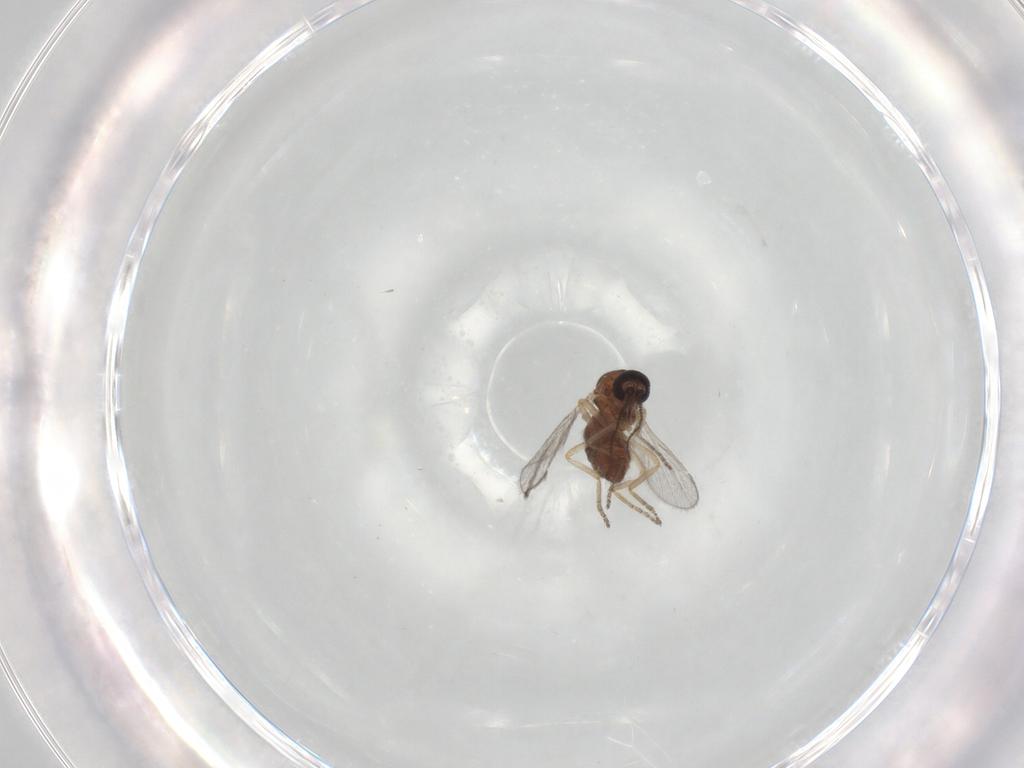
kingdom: Animalia
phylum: Arthropoda
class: Insecta
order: Diptera
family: Ceratopogonidae
